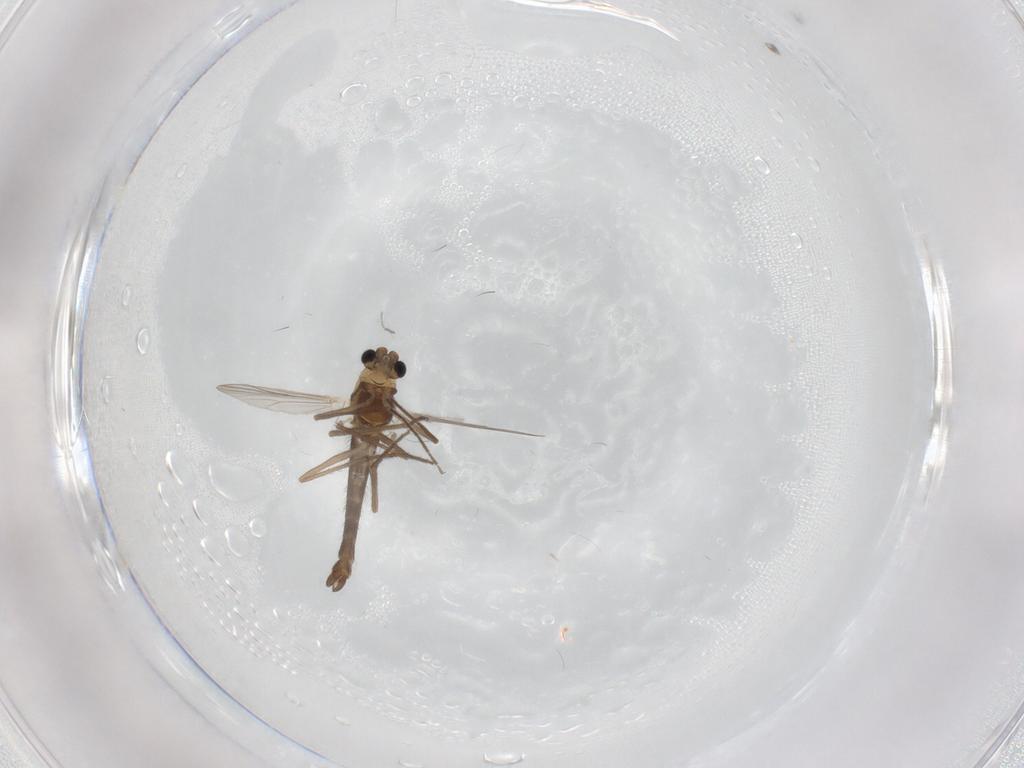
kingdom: Animalia
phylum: Arthropoda
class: Insecta
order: Diptera
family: Chironomidae
